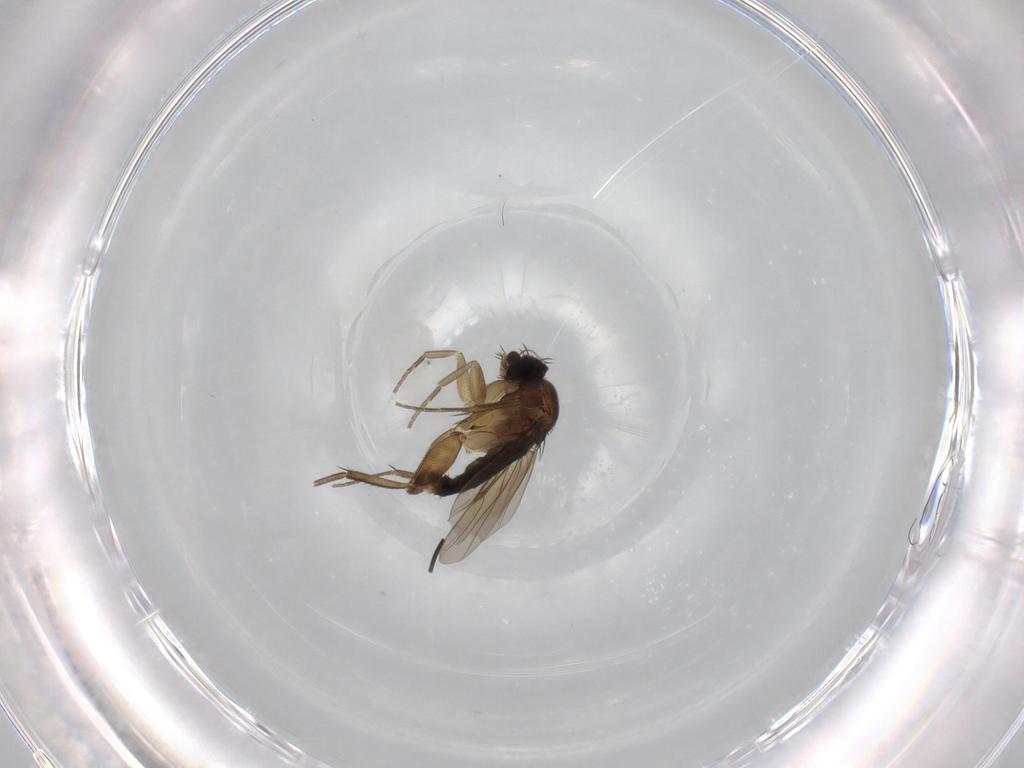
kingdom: Animalia
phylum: Arthropoda
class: Insecta
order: Diptera
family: Phoridae
